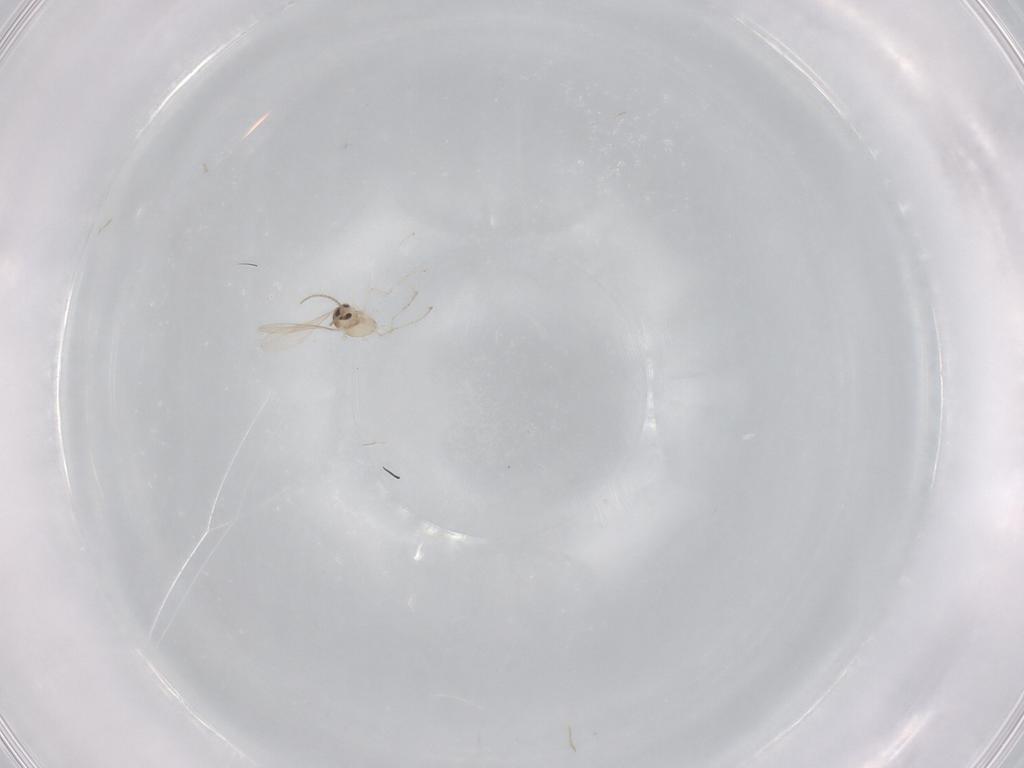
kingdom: Animalia
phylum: Arthropoda
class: Insecta
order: Diptera
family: Cecidomyiidae
